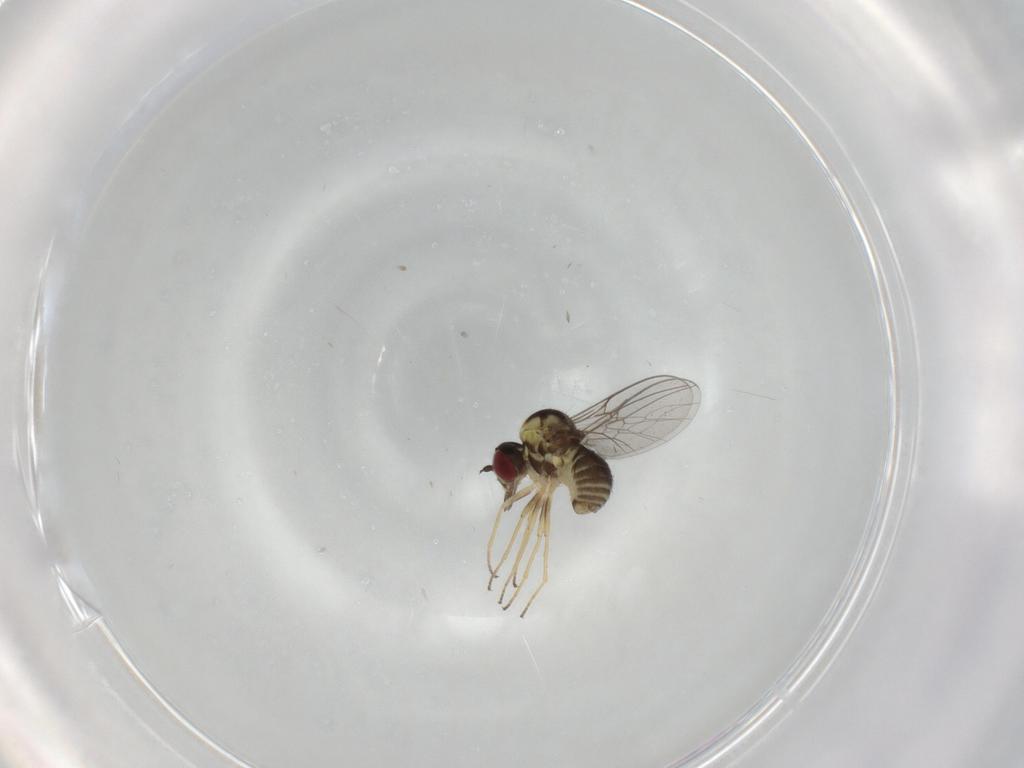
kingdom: Animalia
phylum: Arthropoda
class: Insecta
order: Diptera
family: Bombyliidae
